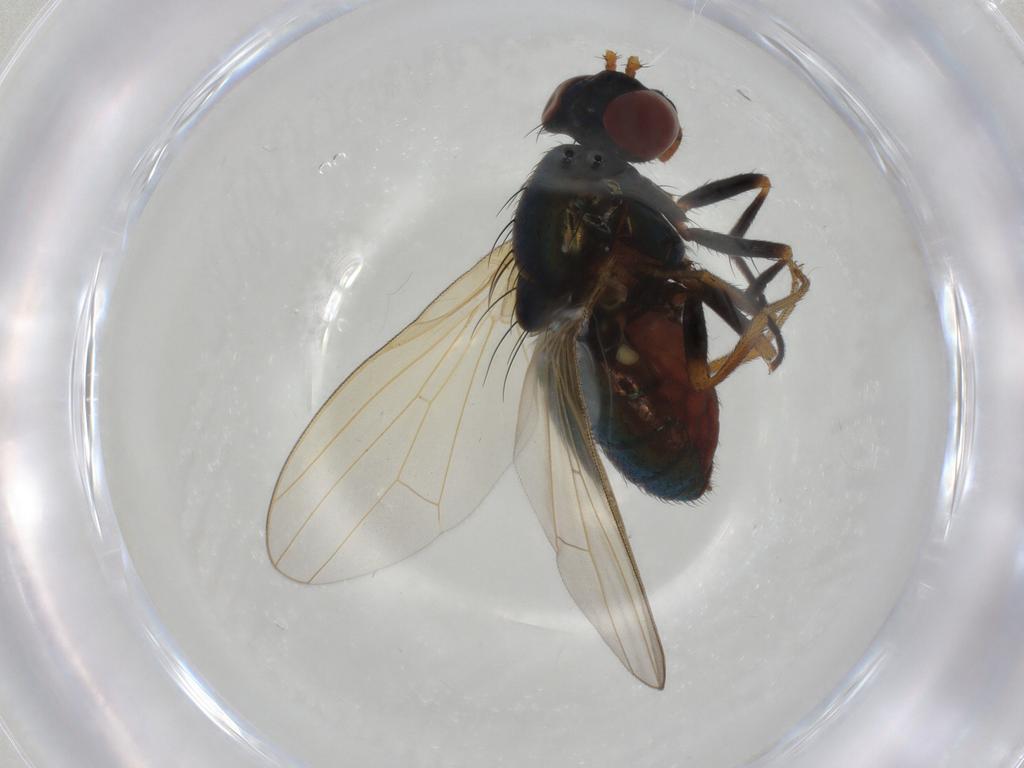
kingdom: Animalia
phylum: Arthropoda
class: Insecta
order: Diptera
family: Lauxaniidae
